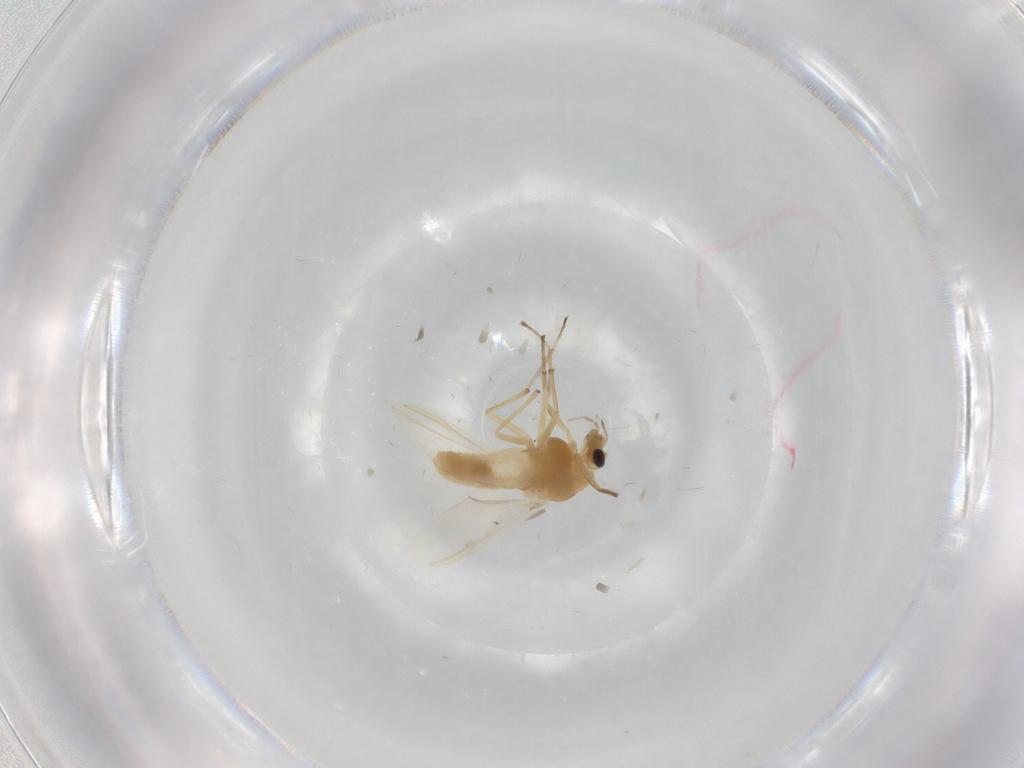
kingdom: Animalia
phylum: Arthropoda
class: Insecta
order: Diptera
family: Chironomidae
